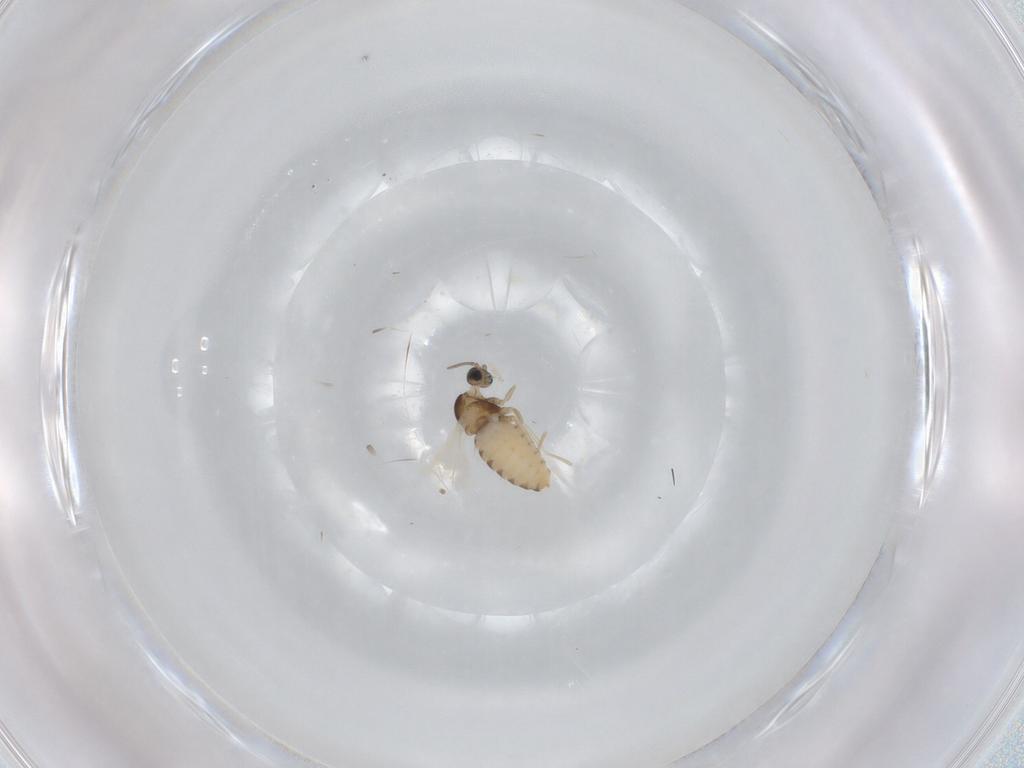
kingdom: Animalia
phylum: Arthropoda
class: Insecta
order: Diptera
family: Cecidomyiidae
